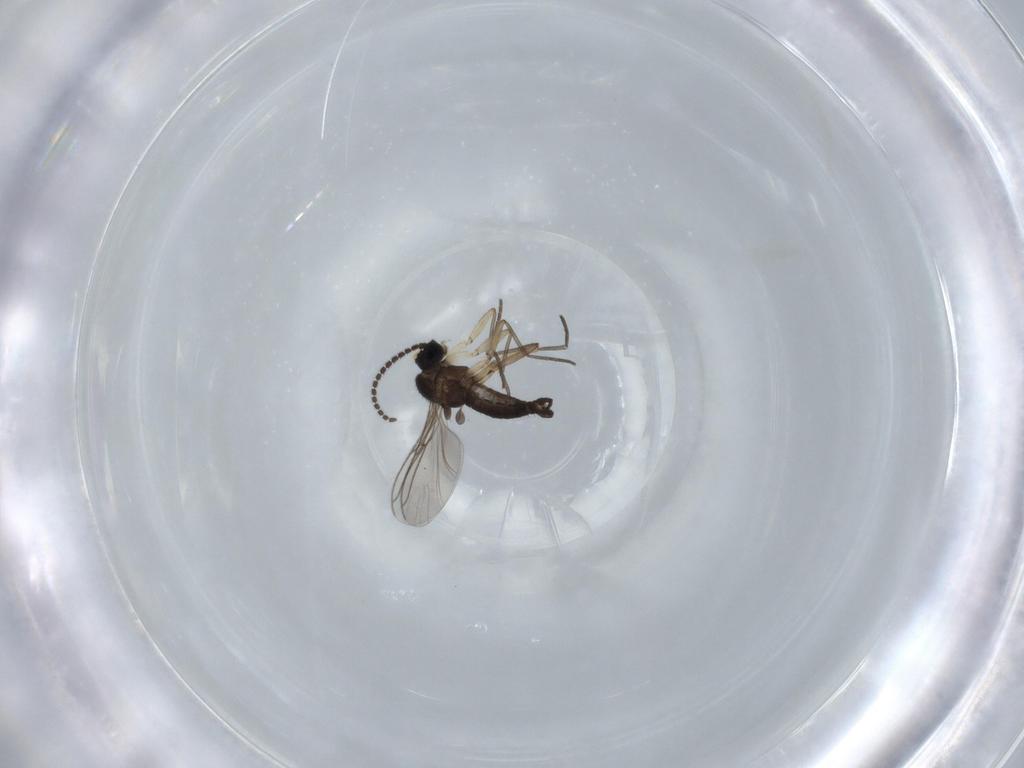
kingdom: Animalia
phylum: Arthropoda
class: Insecta
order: Diptera
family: Sciaridae
